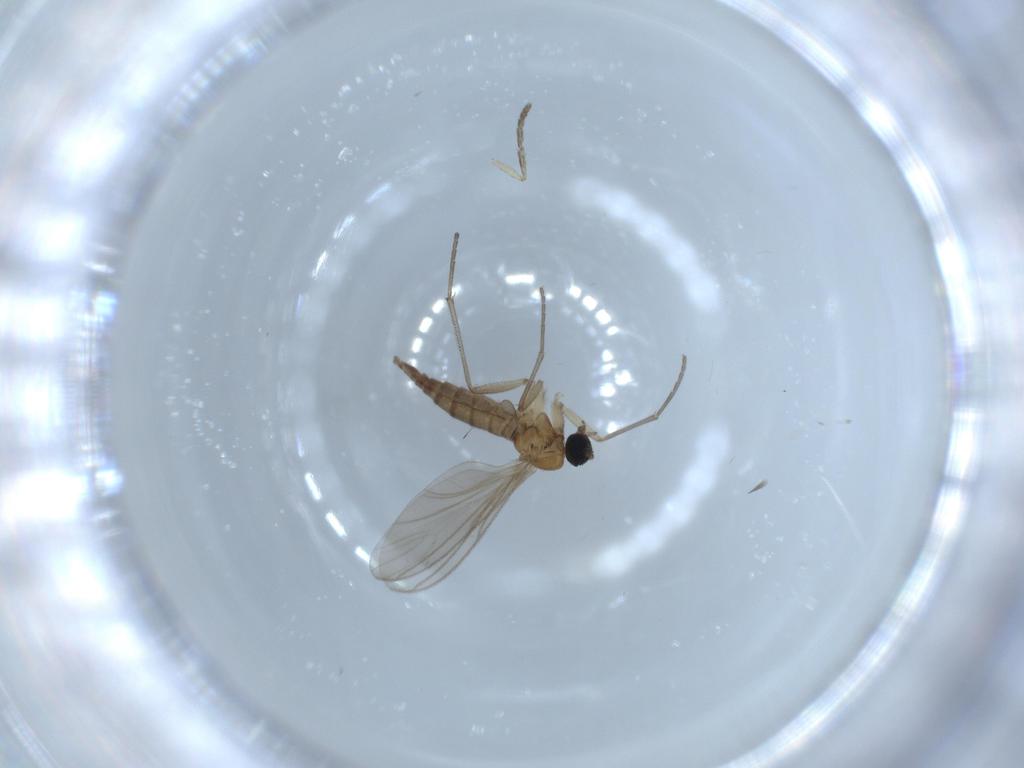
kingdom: Animalia
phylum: Arthropoda
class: Insecta
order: Diptera
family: Sciaridae
